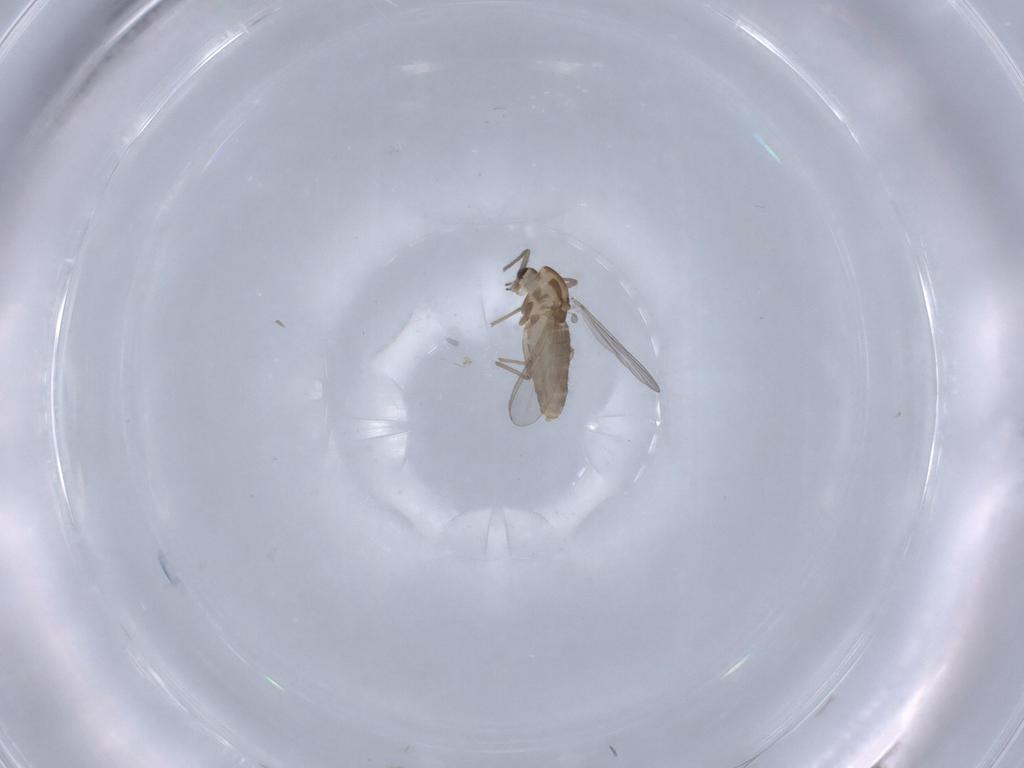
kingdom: Animalia
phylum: Arthropoda
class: Insecta
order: Diptera
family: Chironomidae
